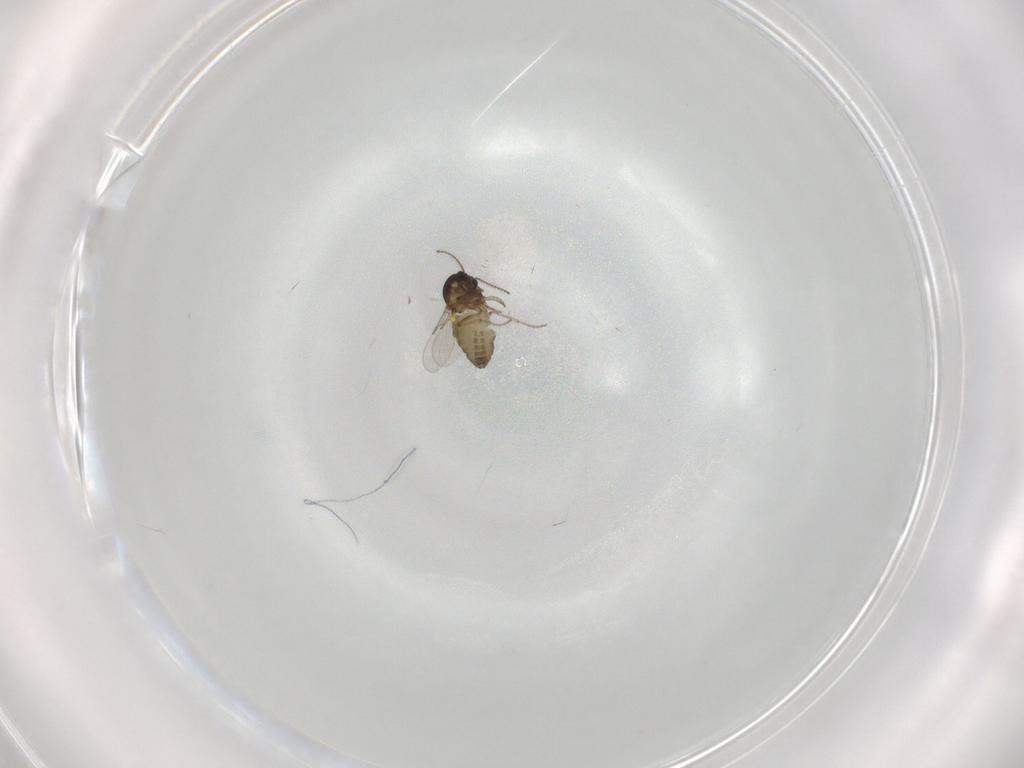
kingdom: Animalia
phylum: Arthropoda
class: Insecta
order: Diptera
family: Ceratopogonidae
